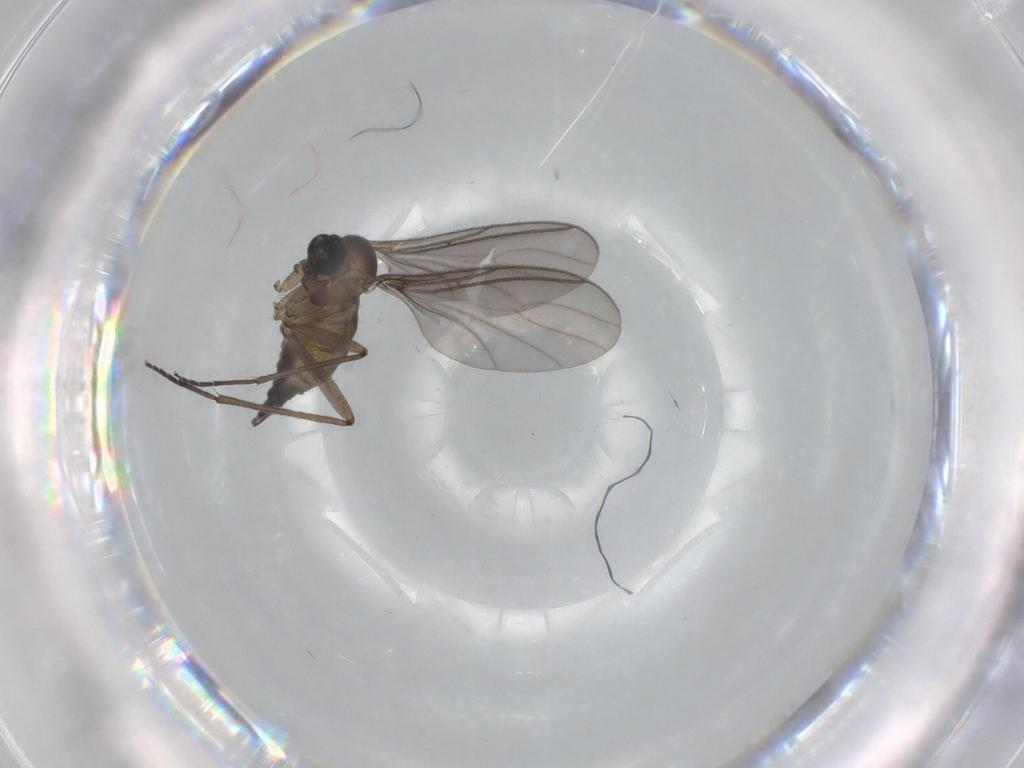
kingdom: Animalia
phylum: Arthropoda
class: Insecta
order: Diptera
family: Sciaridae
